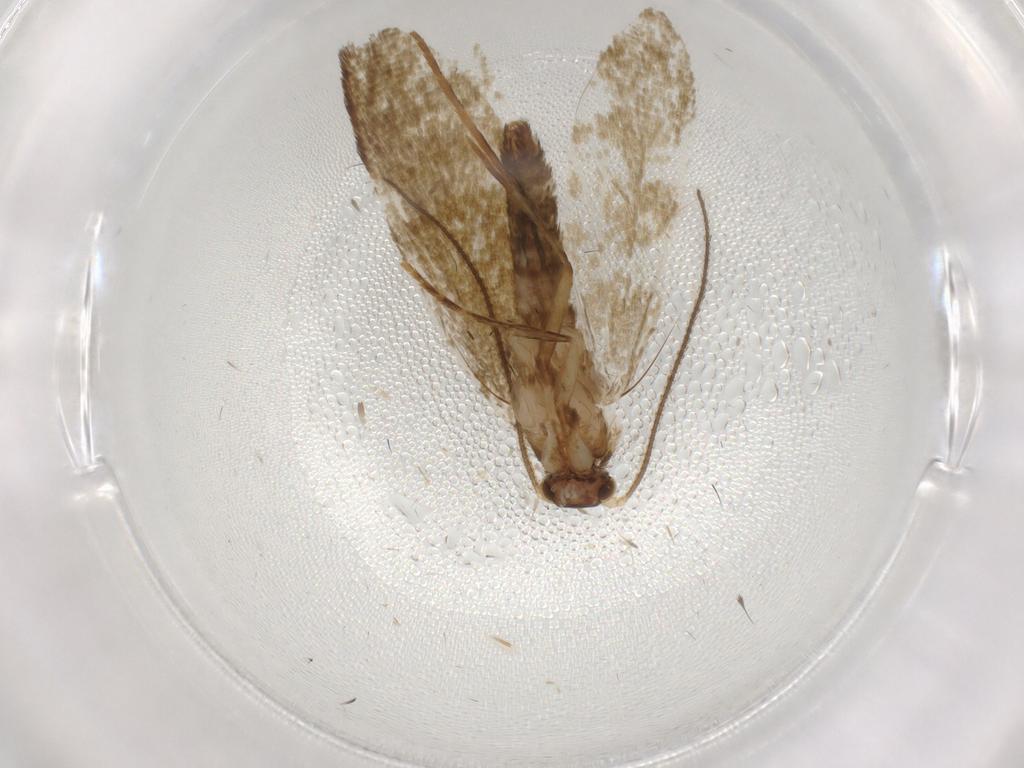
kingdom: Animalia
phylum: Arthropoda
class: Insecta
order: Lepidoptera
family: Tineidae
